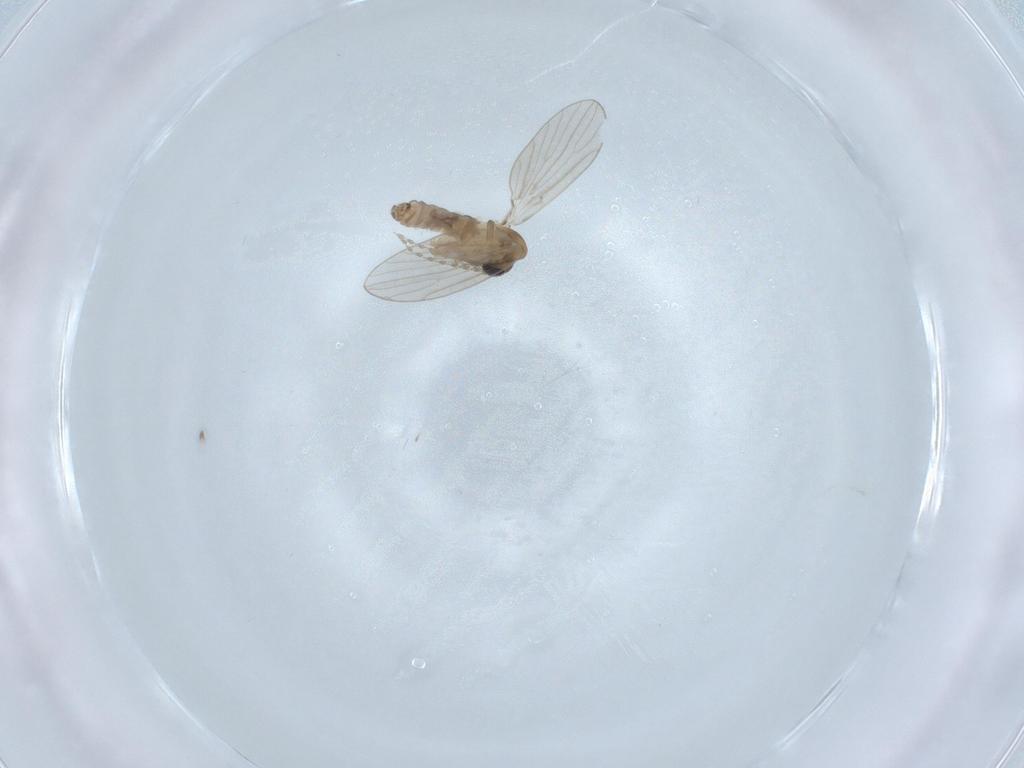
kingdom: Animalia
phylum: Arthropoda
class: Insecta
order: Diptera
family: Psychodidae
